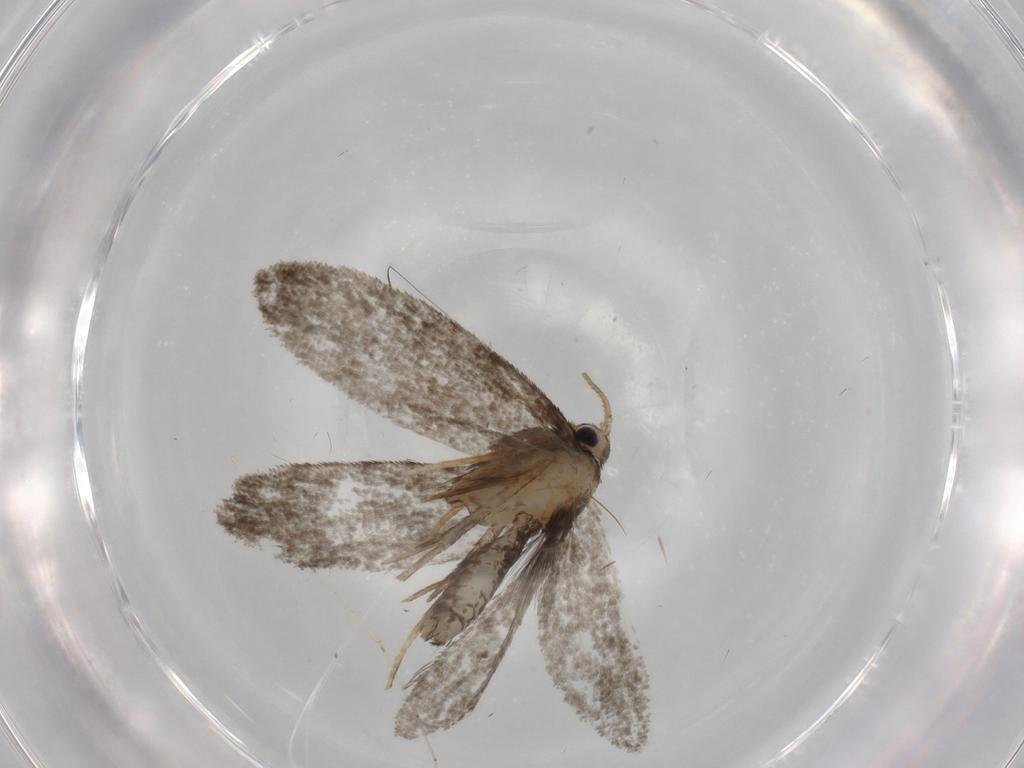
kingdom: Animalia
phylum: Arthropoda
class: Insecta
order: Lepidoptera
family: Psychidae
